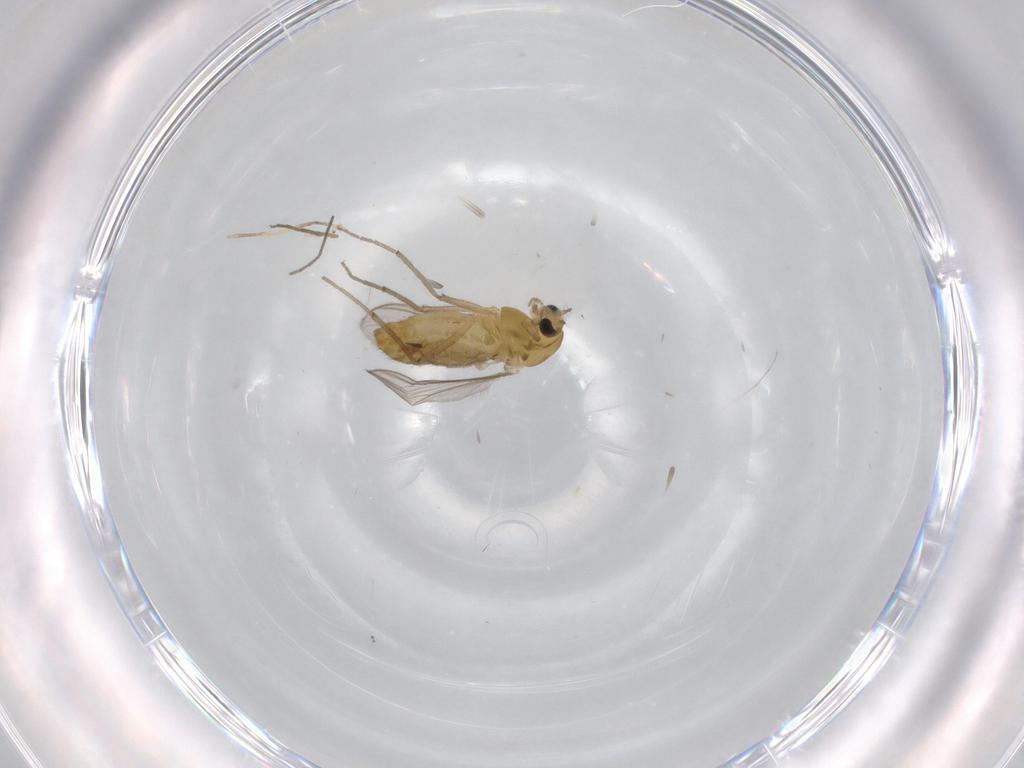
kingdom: Animalia
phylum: Arthropoda
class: Insecta
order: Diptera
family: Chironomidae
